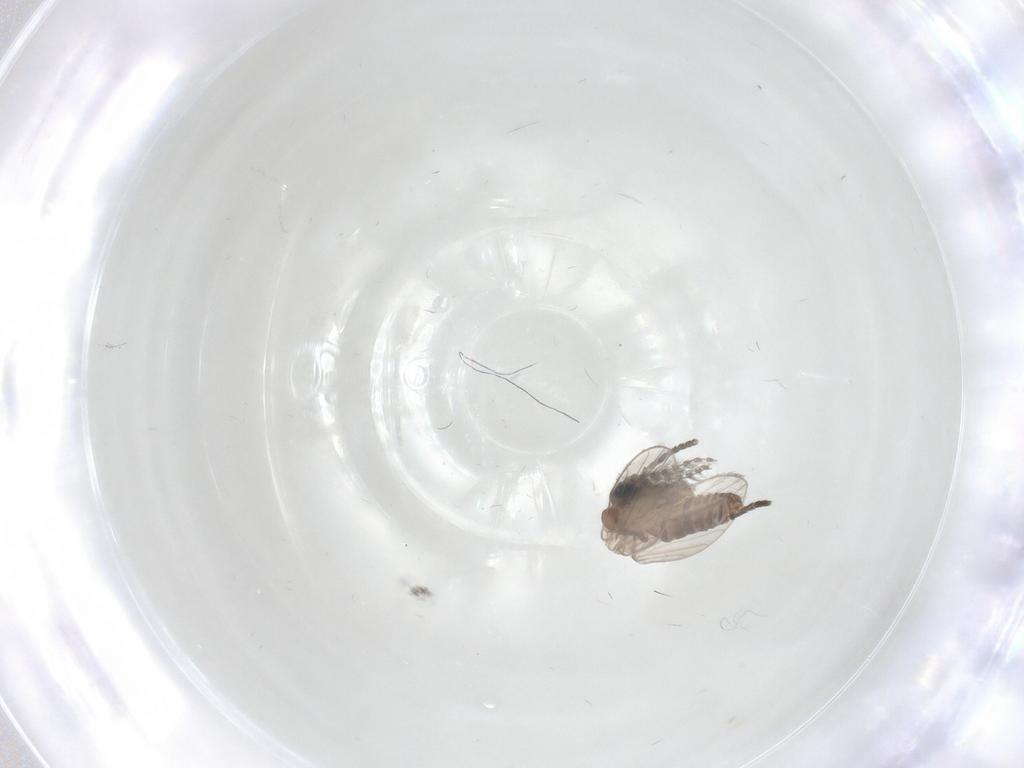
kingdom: Animalia
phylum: Arthropoda
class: Insecta
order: Diptera
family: Psychodidae
